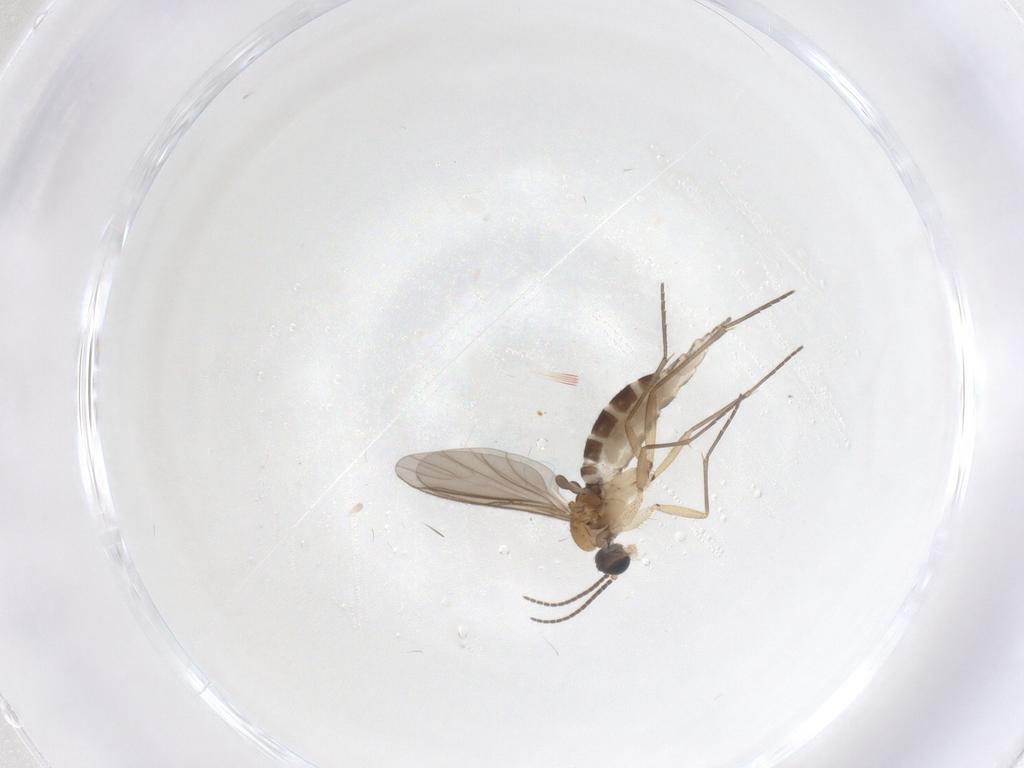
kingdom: Animalia
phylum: Arthropoda
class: Insecta
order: Diptera
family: Sciaridae
